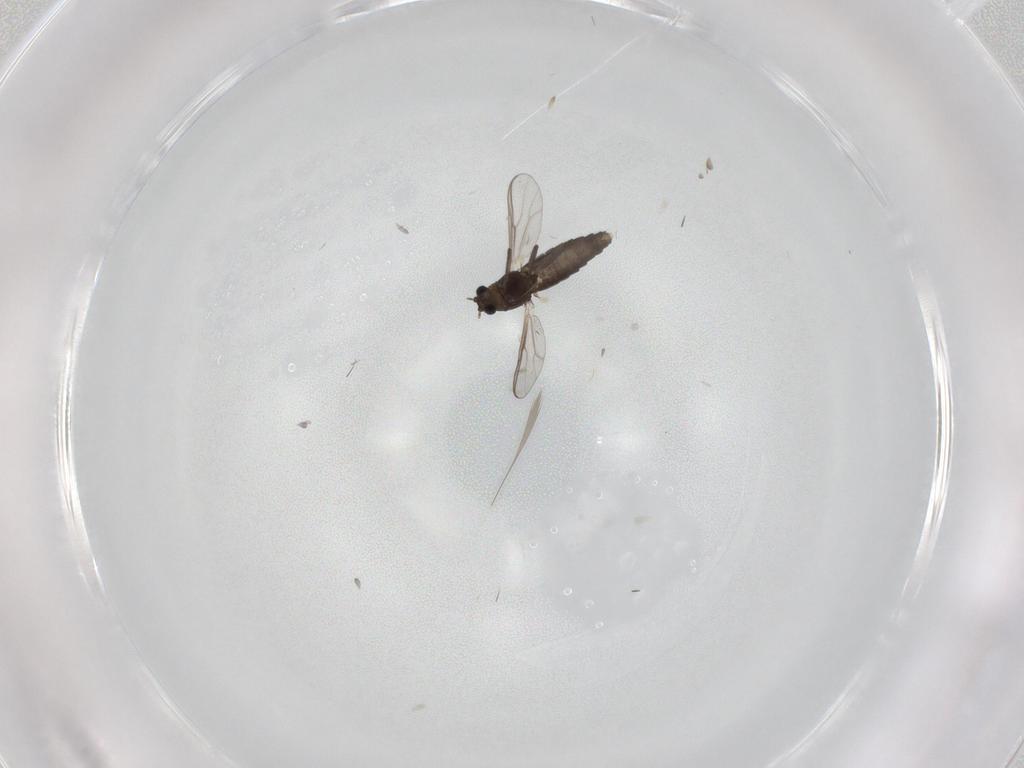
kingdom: Animalia
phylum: Arthropoda
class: Insecta
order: Diptera
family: Chironomidae
